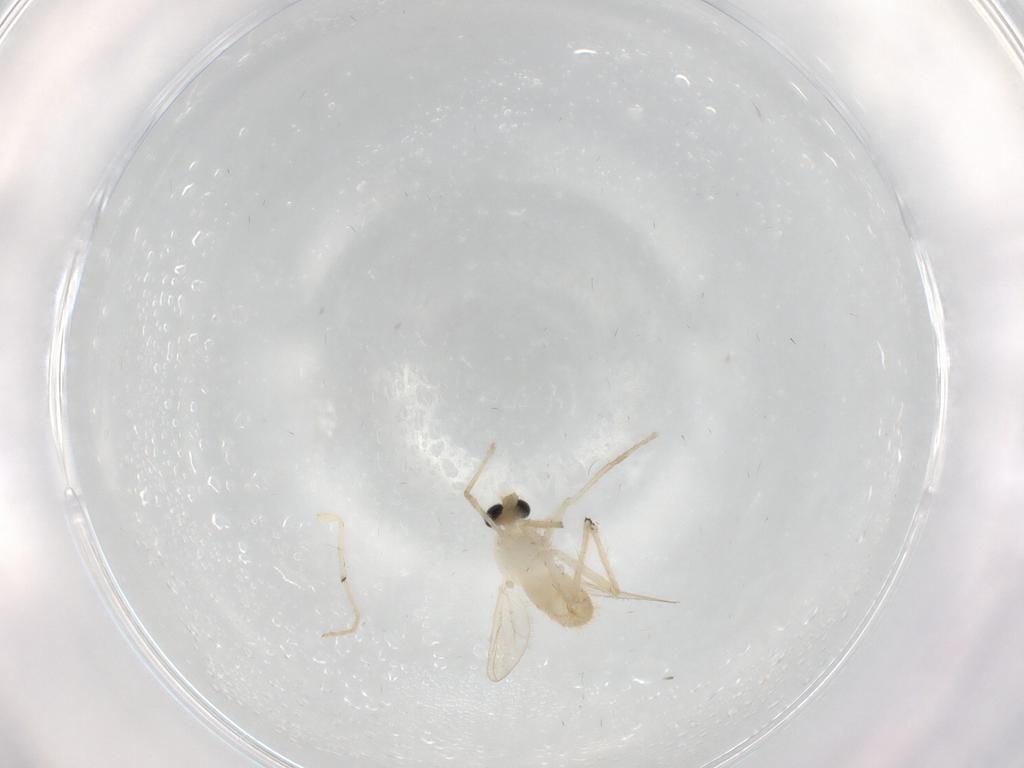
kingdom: Animalia
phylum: Arthropoda
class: Insecta
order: Diptera
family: Chironomidae
